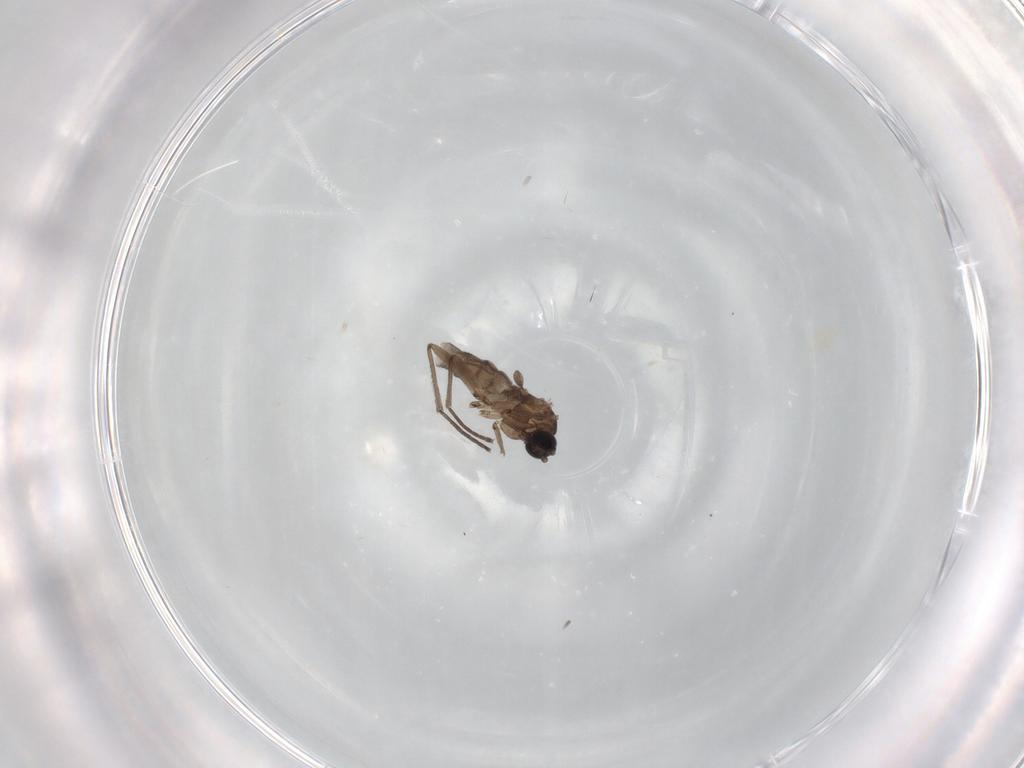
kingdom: Animalia
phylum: Arthropoda
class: Insecta
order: Diptera
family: Sciaridae
